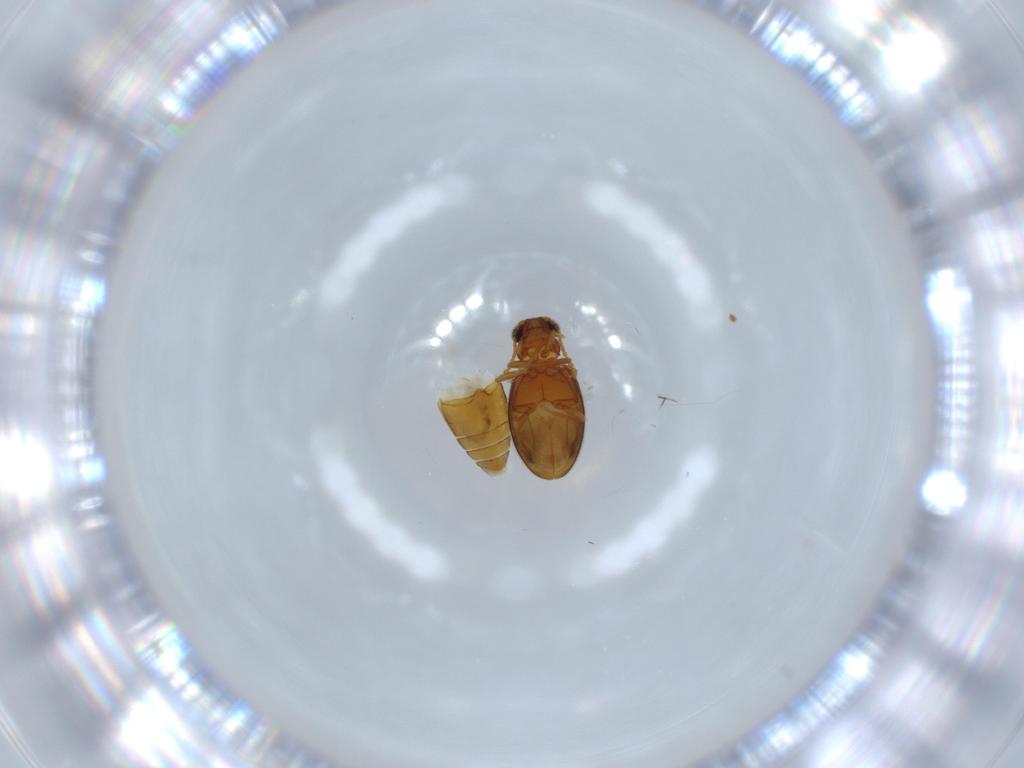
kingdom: Animalia
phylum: Arthropoda
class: Insecta
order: Coleoptera
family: Aderidae
